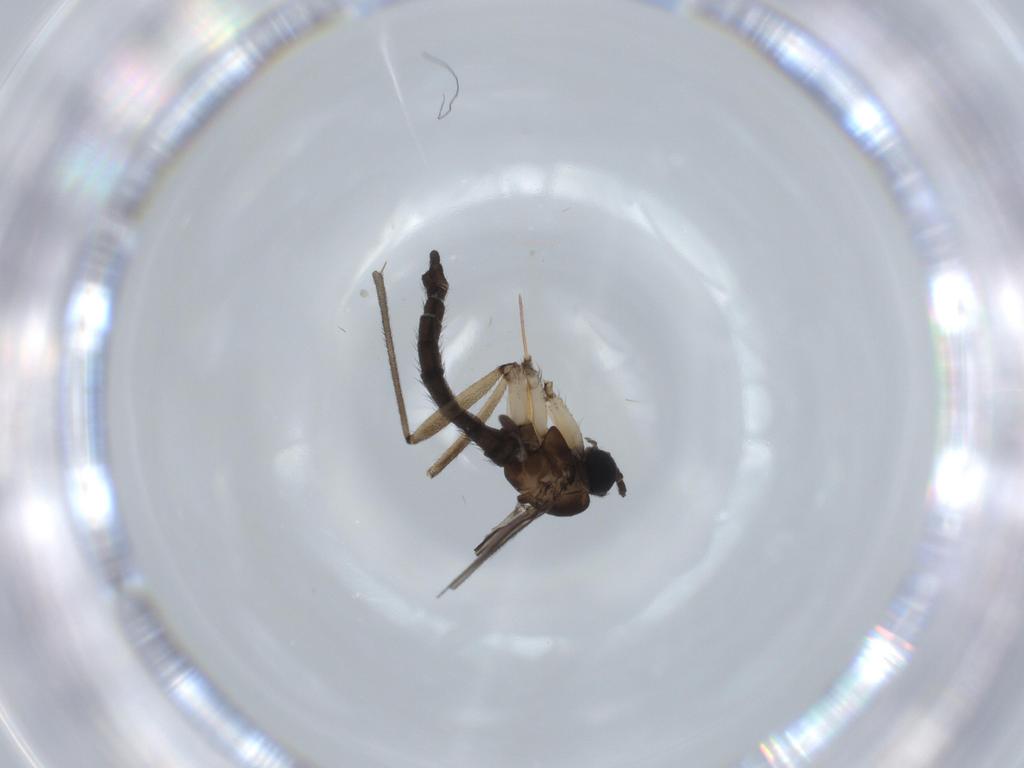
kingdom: Animalia
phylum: Arthropoda
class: Insecta
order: Diptera
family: Sciaridae
